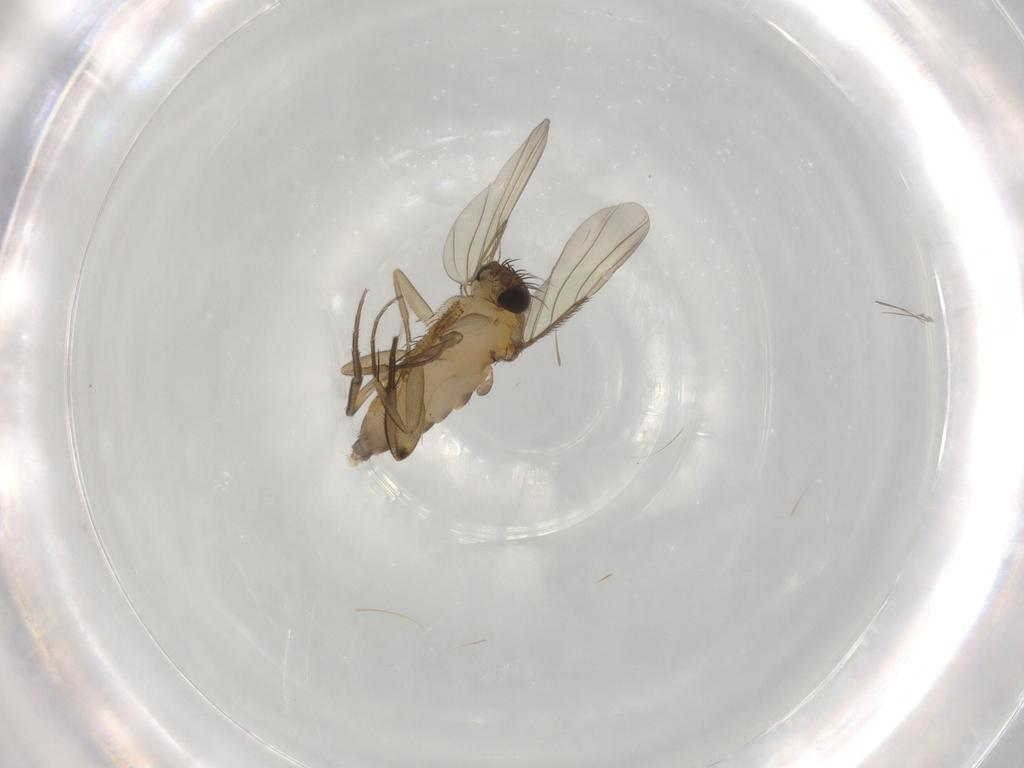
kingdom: Animalia
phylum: Arthropoda
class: Insecta
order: Diptera
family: Phoridae
